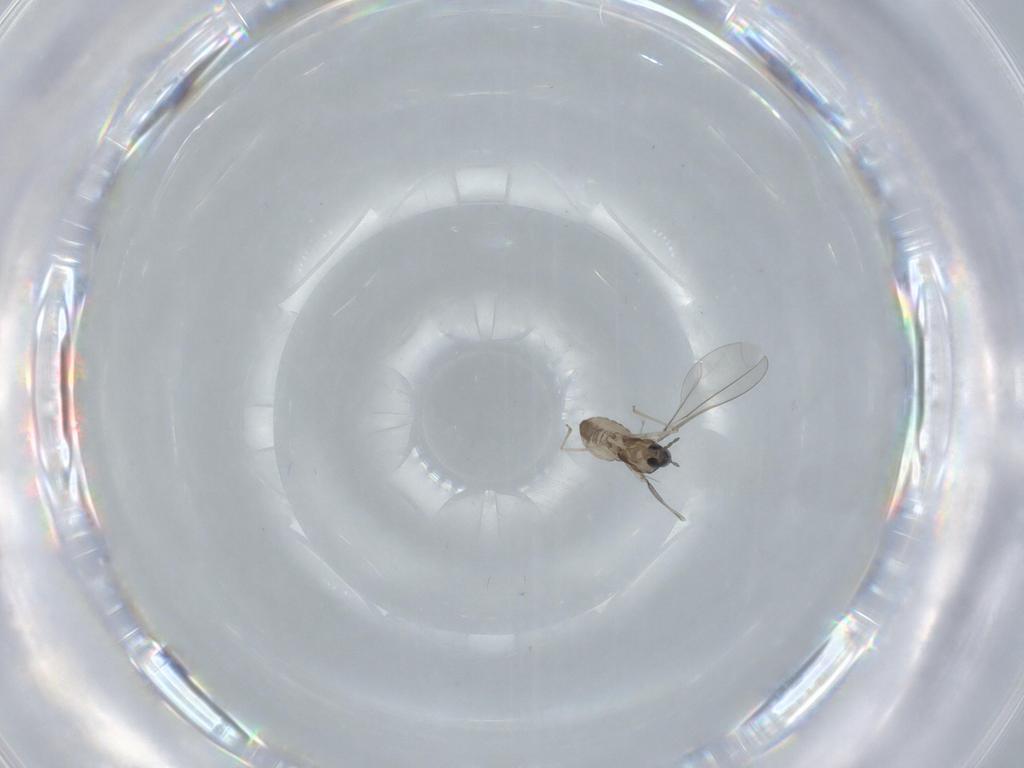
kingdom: Animalia
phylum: Arthropoda
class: Insecta
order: Diptera
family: Cecidomyiidae
